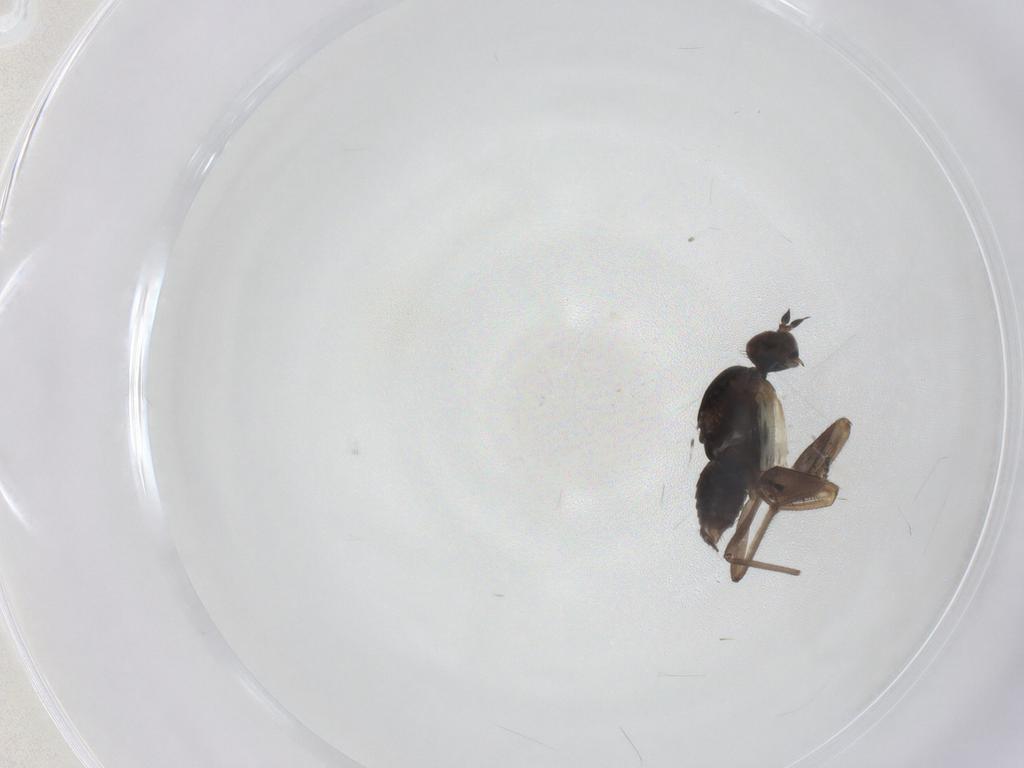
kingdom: Animalia
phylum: Arthropoda
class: Insecta
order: Diptera
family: Empididae
